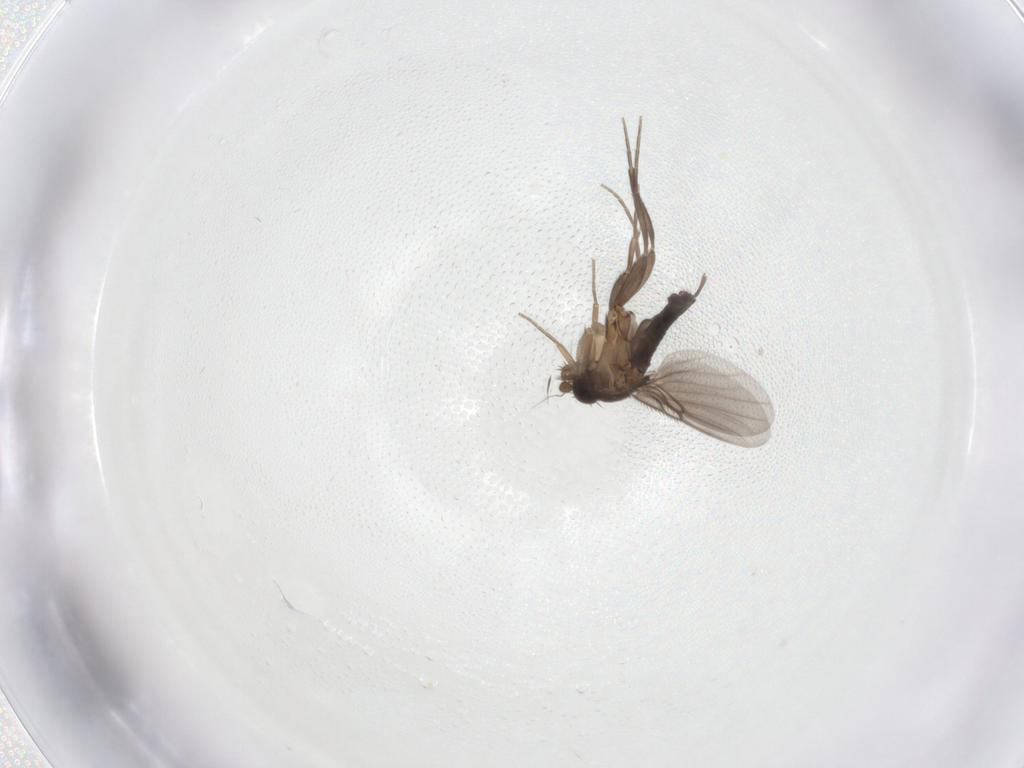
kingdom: Animalia
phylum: Arthropoda
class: Insecta
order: Diptera
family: Phoridae
